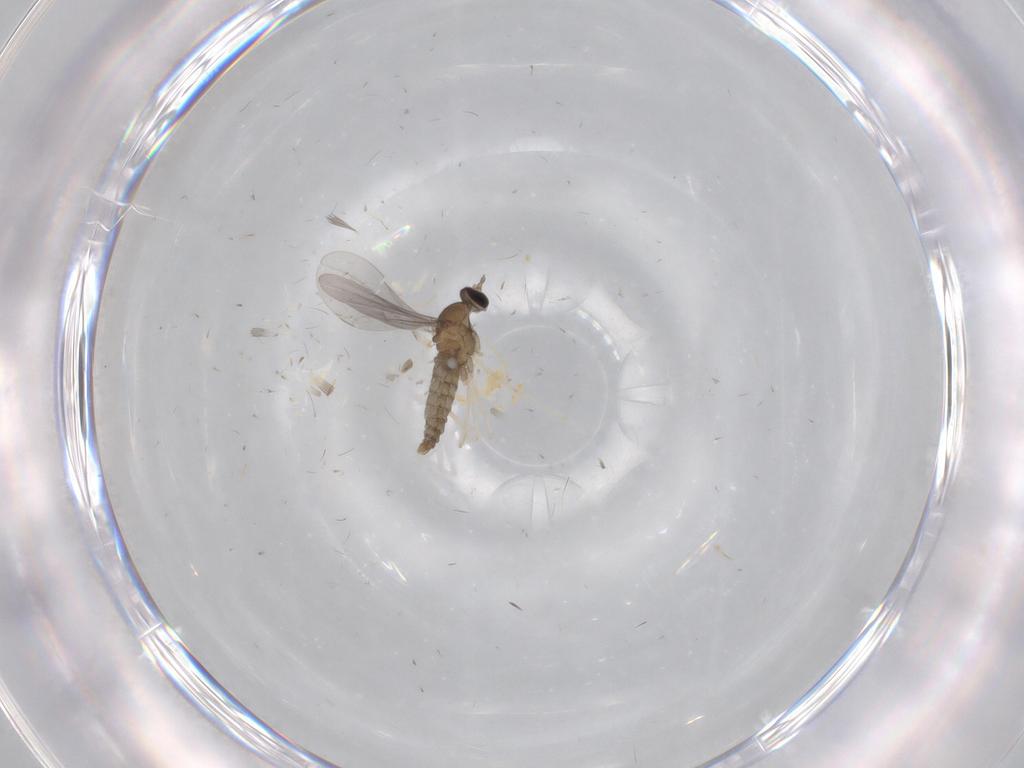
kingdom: Animalia
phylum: Arthropoda
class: Insecta
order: Diptera
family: Cecidomyiidae
